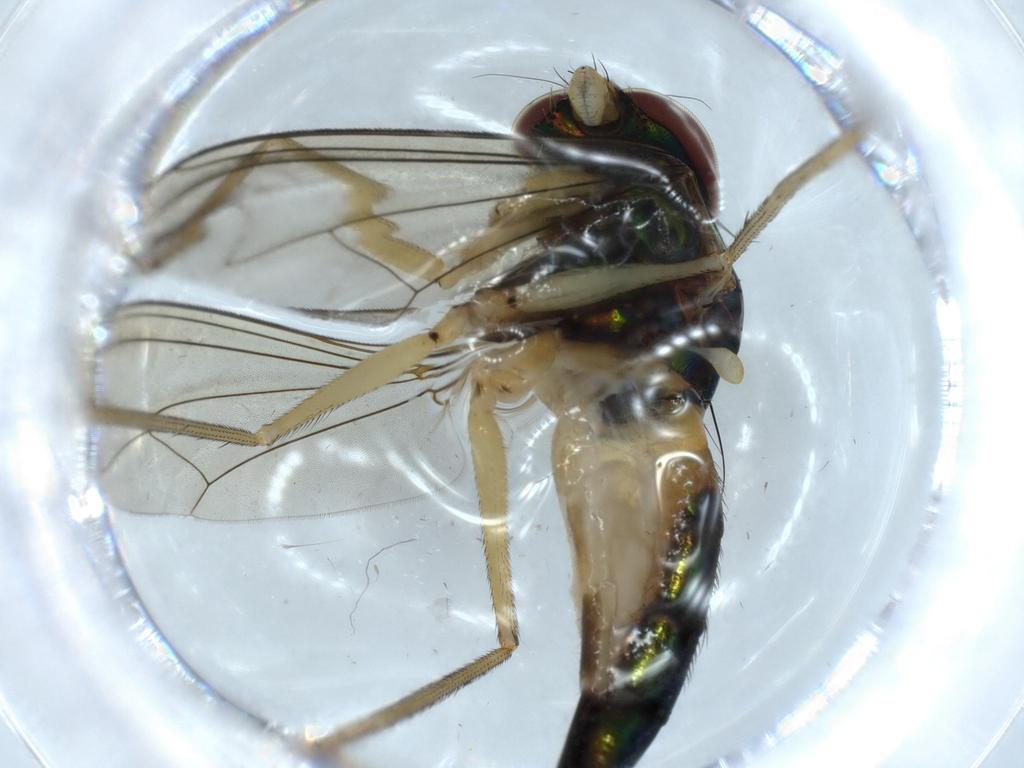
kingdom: Animalia
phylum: Arthropoda
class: Insecta
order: Diptera
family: Dolichopodidae
